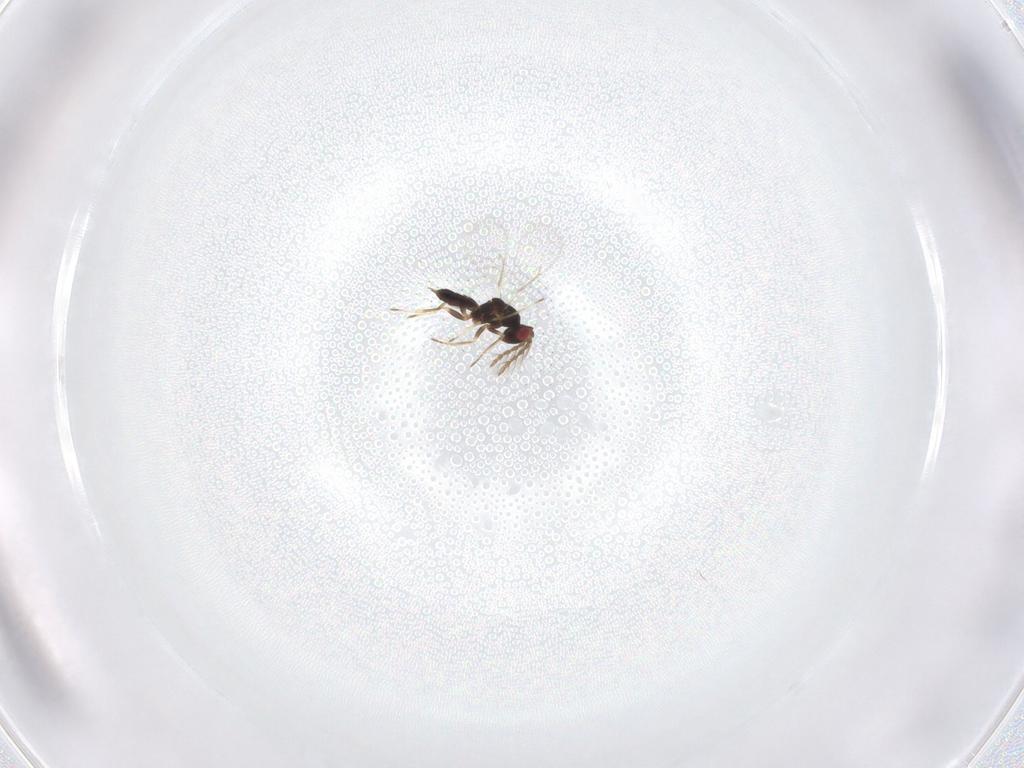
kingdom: Animalia
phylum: Arthropoda
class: Insecta
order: Hymenoptera
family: Eulophidae
